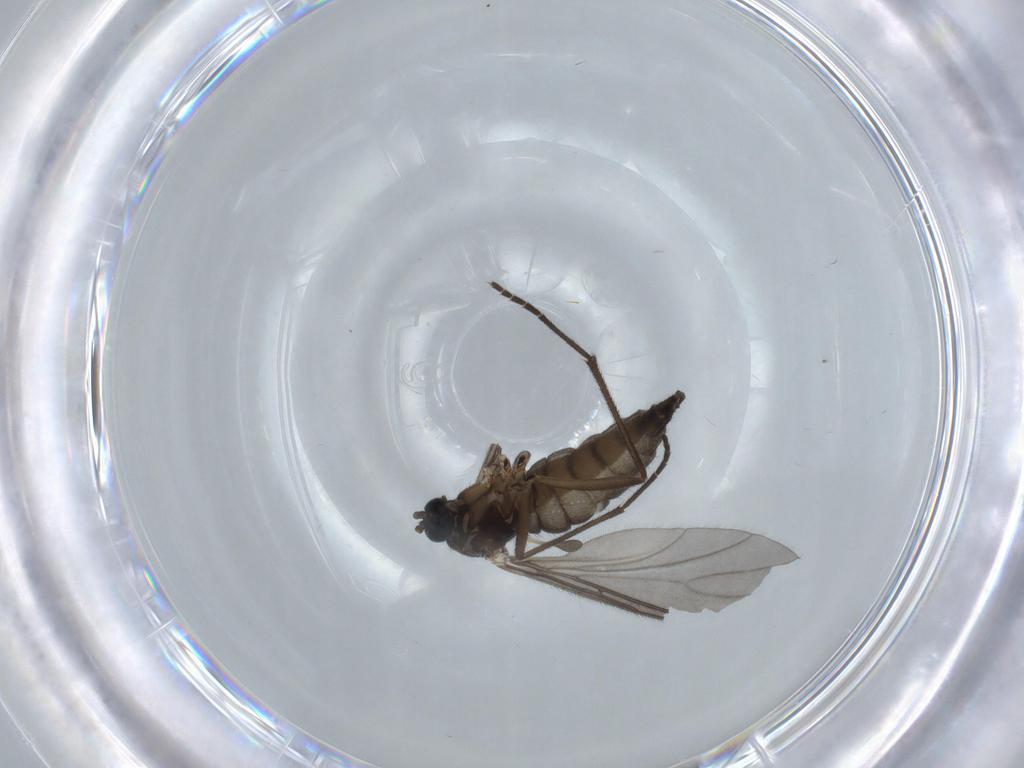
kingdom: Animalia
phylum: Arthropoda
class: Insecta
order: Diptera
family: Sciaridae
